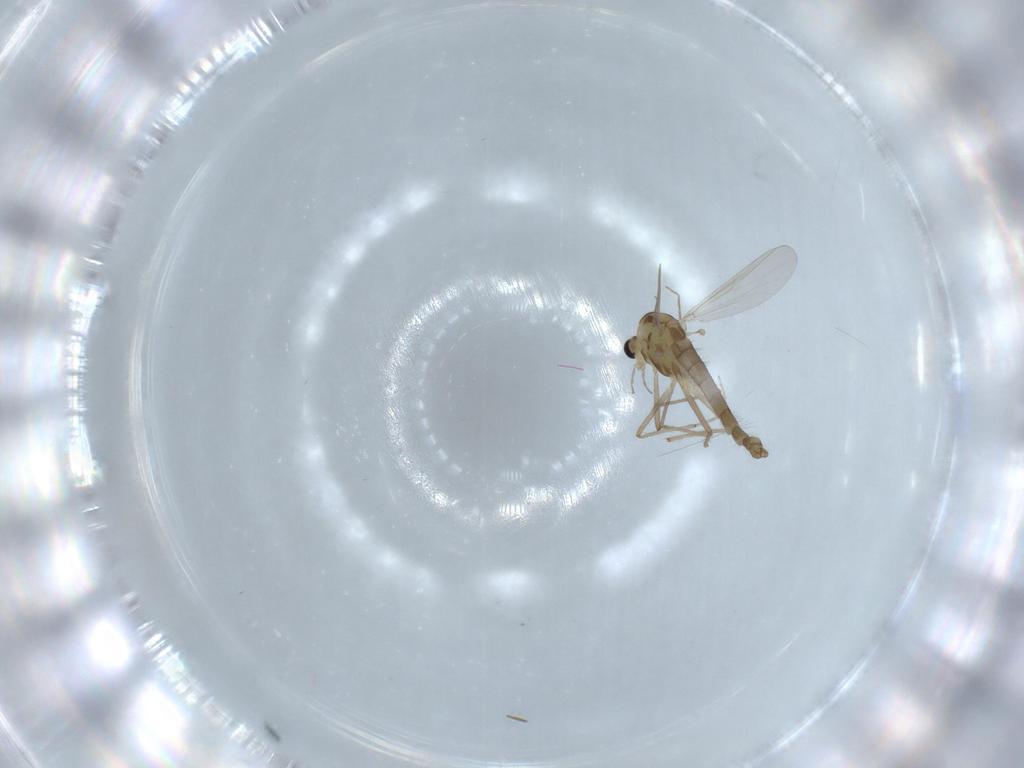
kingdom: Animalia
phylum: Arthropoda
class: Insecta
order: Diptera
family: Chironomidae
